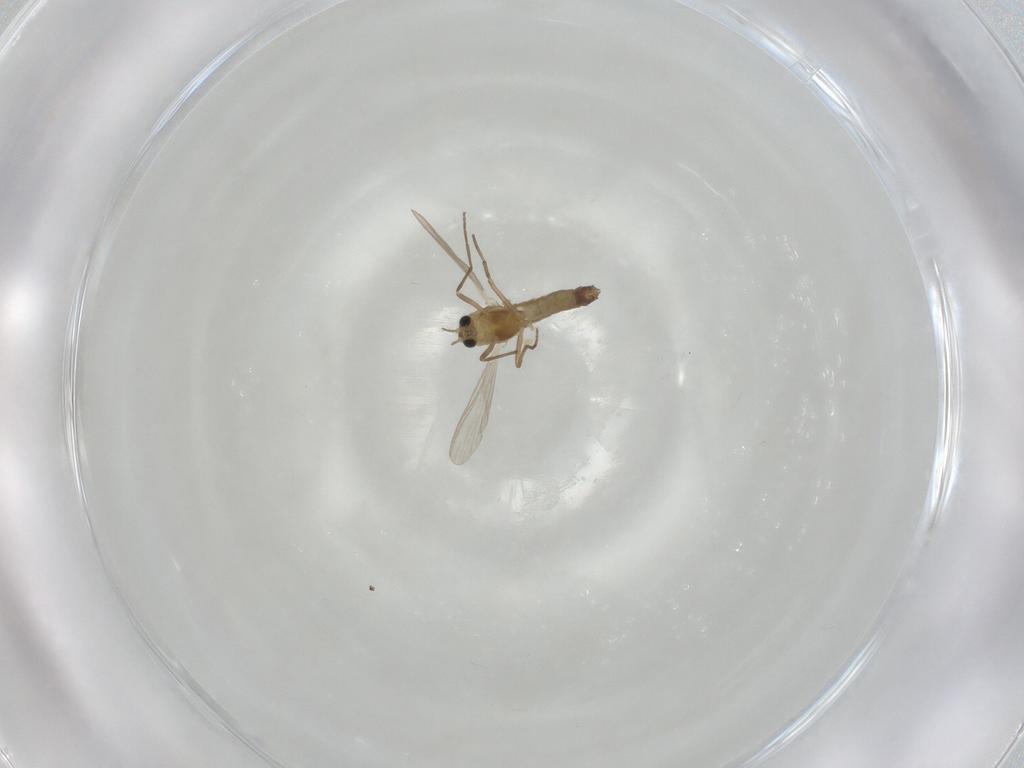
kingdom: Animalia
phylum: Arthropoda
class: Insecta
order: Diptera
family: Chironomidae
